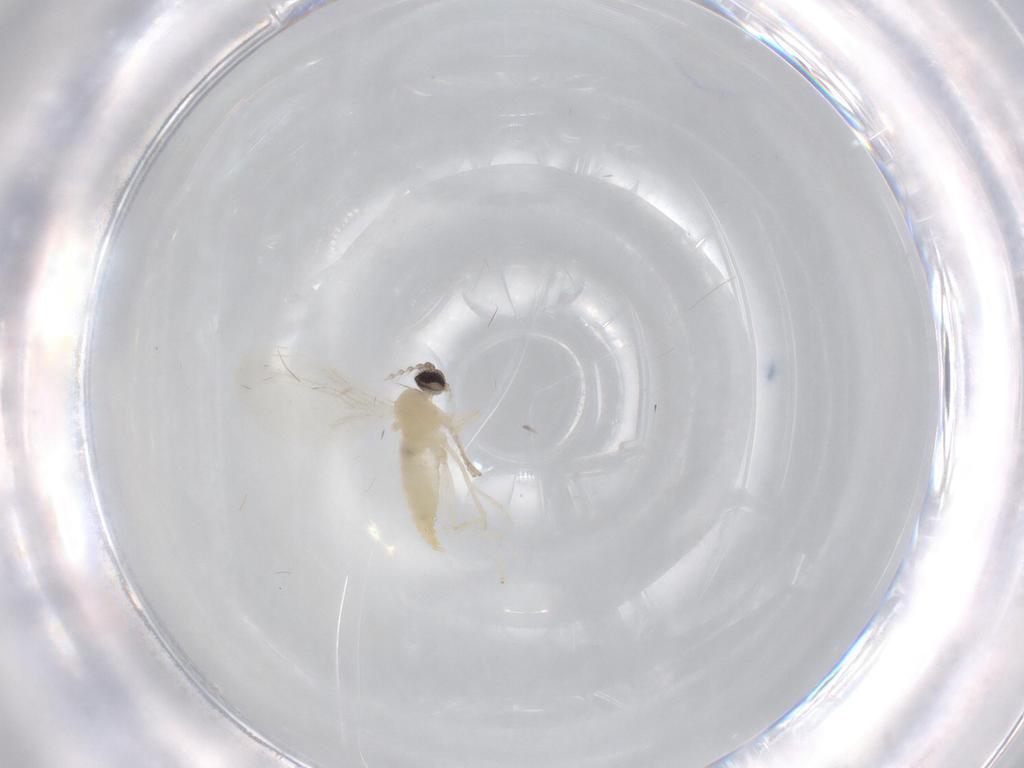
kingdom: Animalia
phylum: Arthropoda
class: Insecta
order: Diptera
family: Cecidomyiidae
